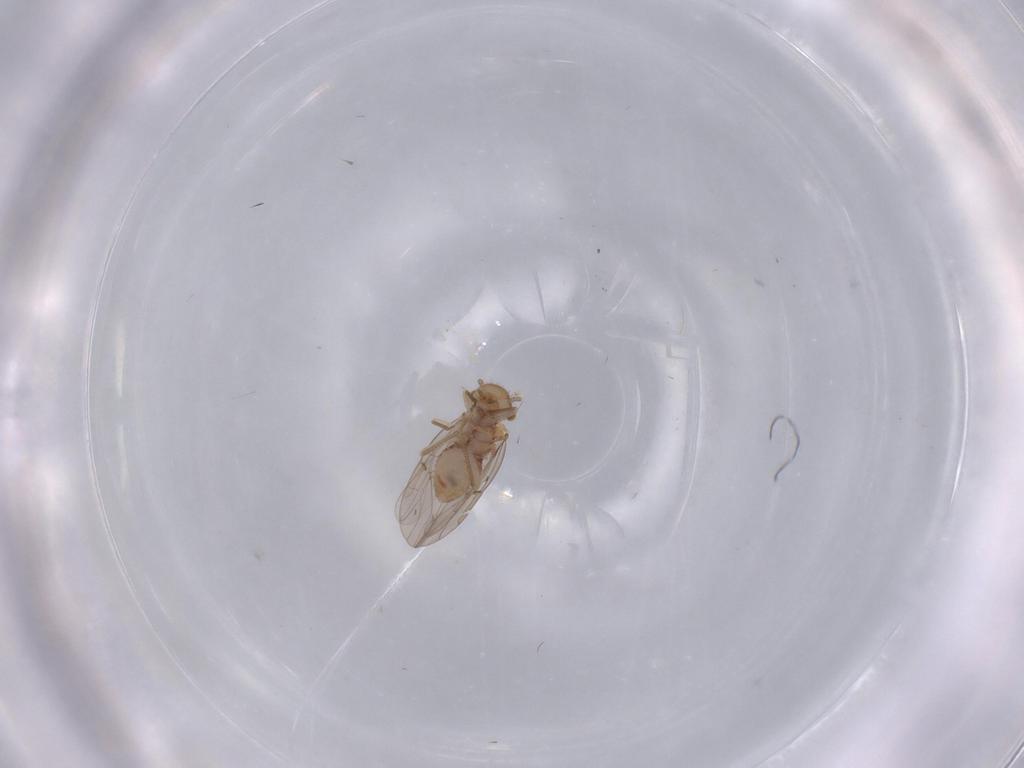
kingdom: Animalia
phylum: Arthropoda
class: Insecta
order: Psocodea
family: Ectopsocidae
